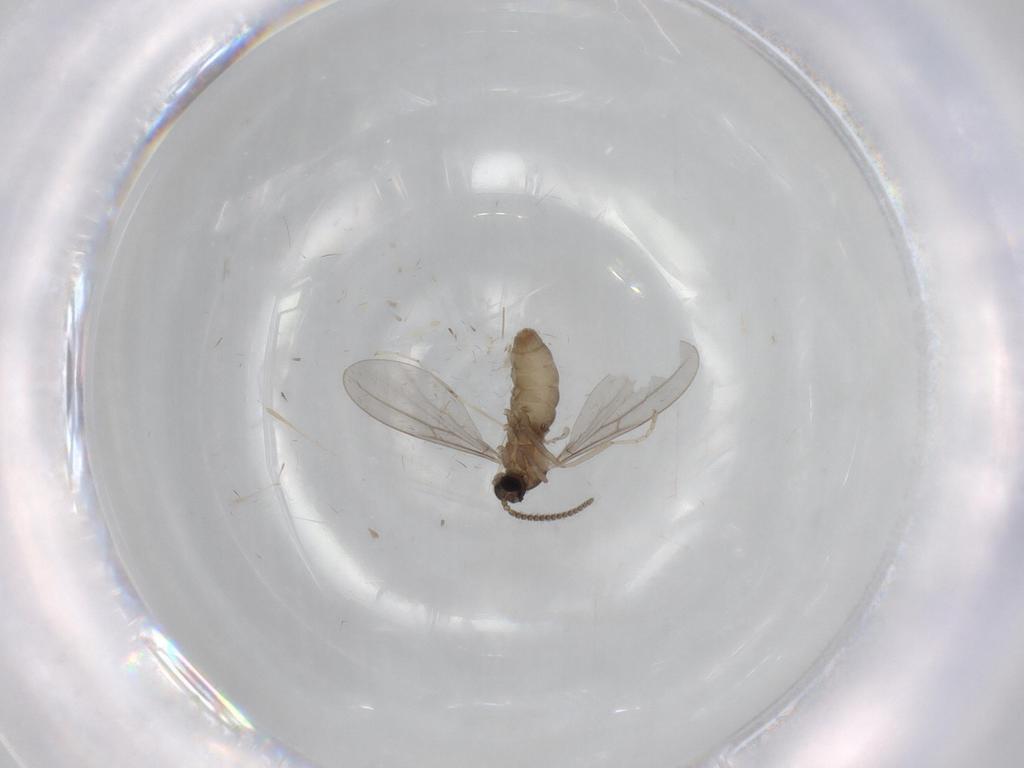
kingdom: Animalia
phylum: Arthropoda
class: Insecta
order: Diptera
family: Cecidomyiidae
